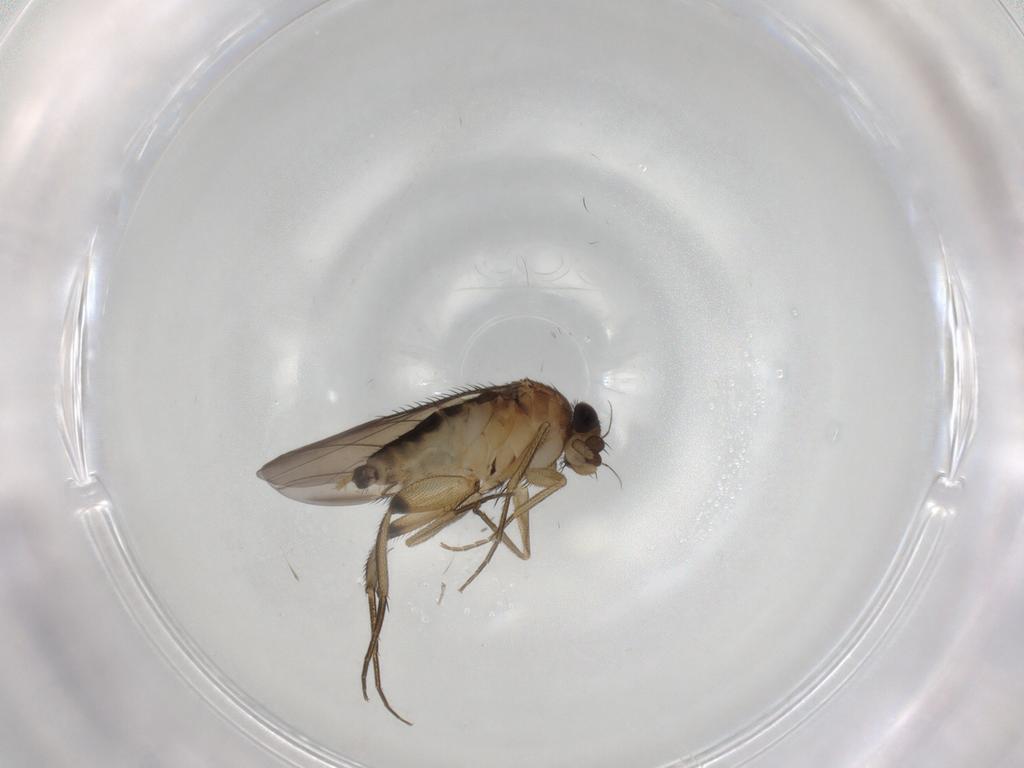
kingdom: Animalia
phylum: Arthropoda
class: Insecta
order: Diptera
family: Phoridae
